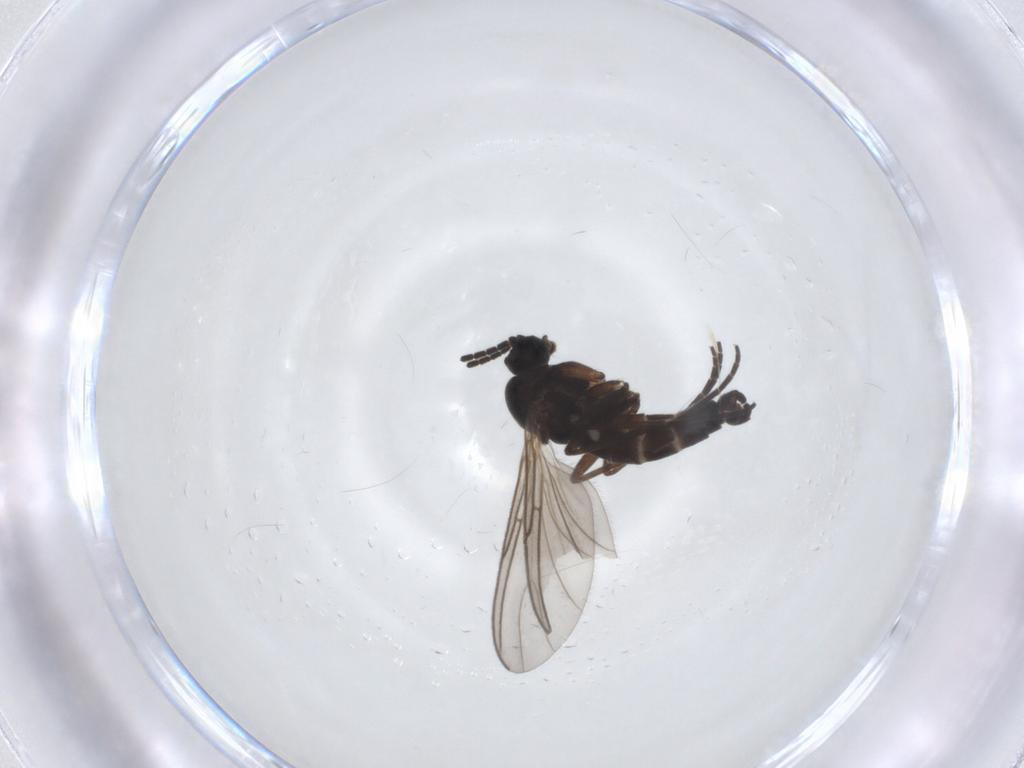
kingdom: Animalia
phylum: Arthropoda
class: Insecta
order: Diptera
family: Sciaridae
